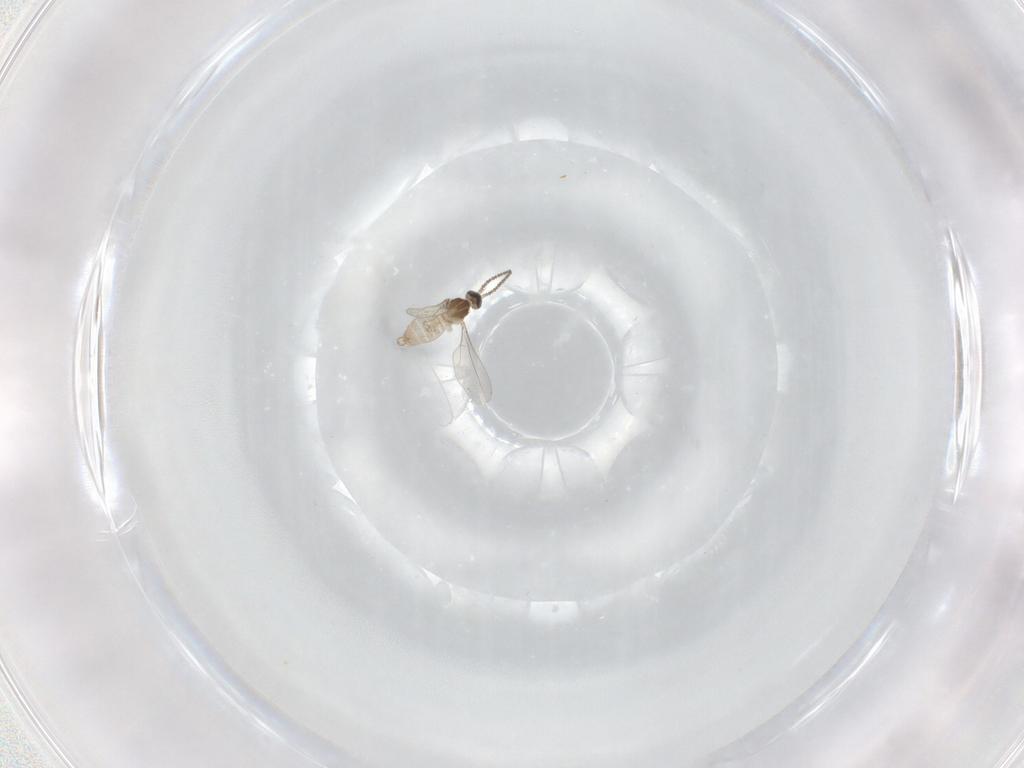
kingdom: Animalia
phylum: Arthropoda
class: Insecta
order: Diptera
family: Cecidomyiidae
